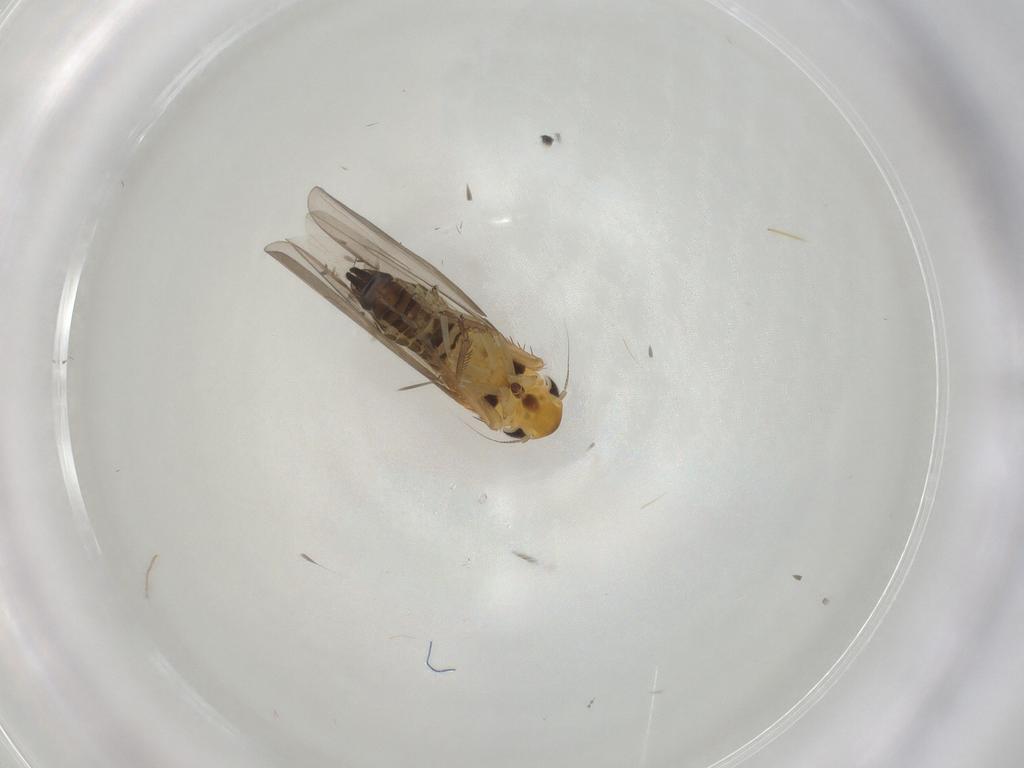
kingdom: Animalia
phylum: Arthropoda
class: Insecta
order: Hemiptera
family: Cicadellidae
